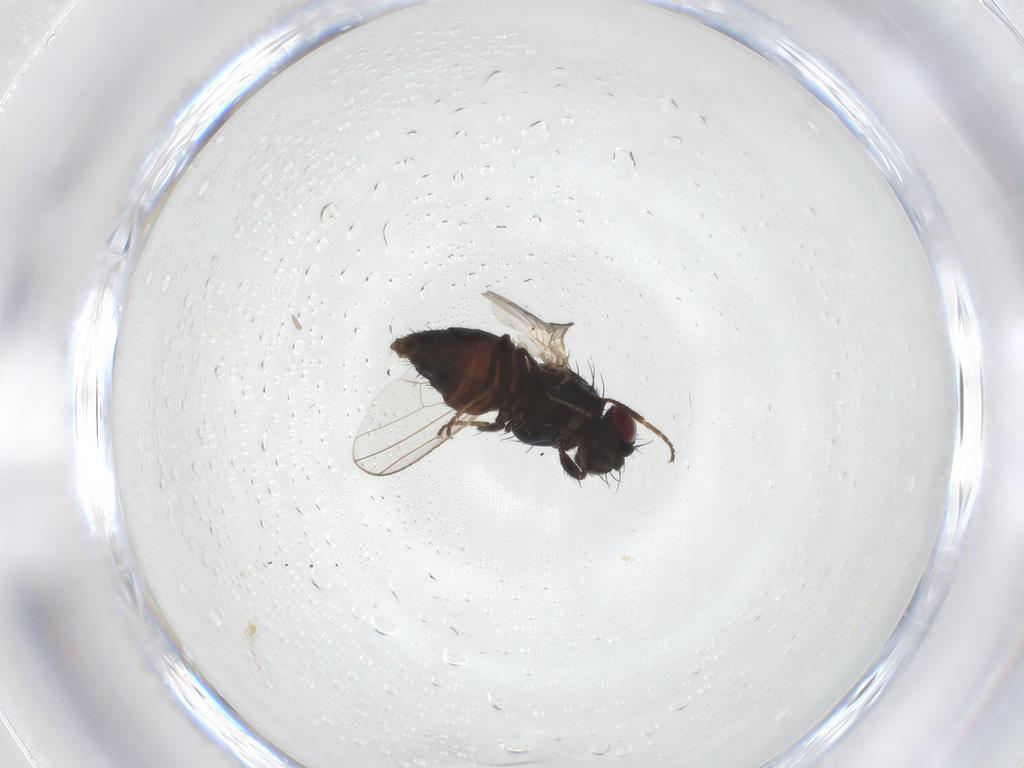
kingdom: Animalia
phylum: Arthropoda
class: Insecta
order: Diptera
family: Carnidae
